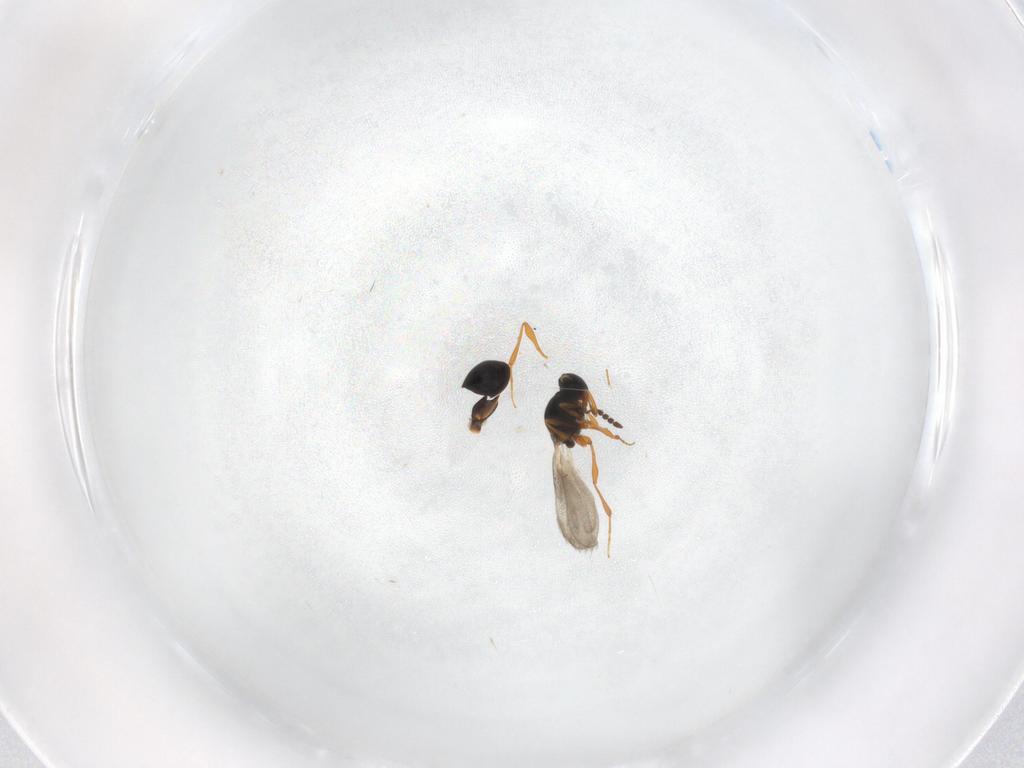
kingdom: Animalia
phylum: Arthropoda
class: Insecta
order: Hymenoptera
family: Platygastridae
